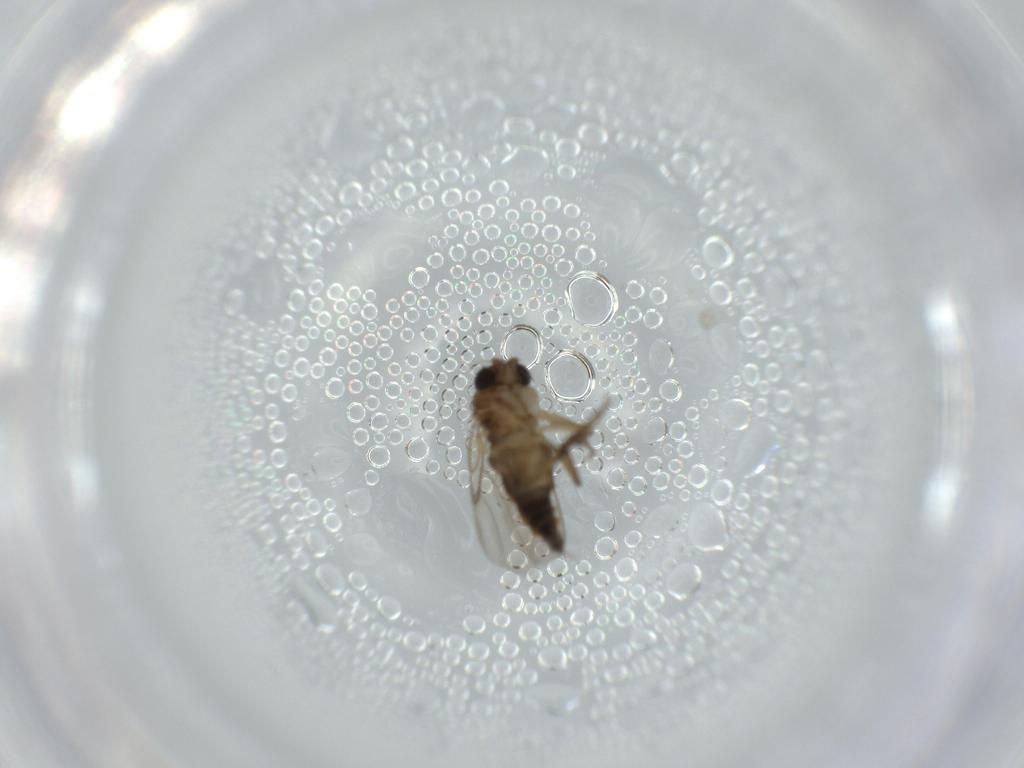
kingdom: Animalia
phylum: Arthropoda
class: Insecta
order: Diptera
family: Phoridae
